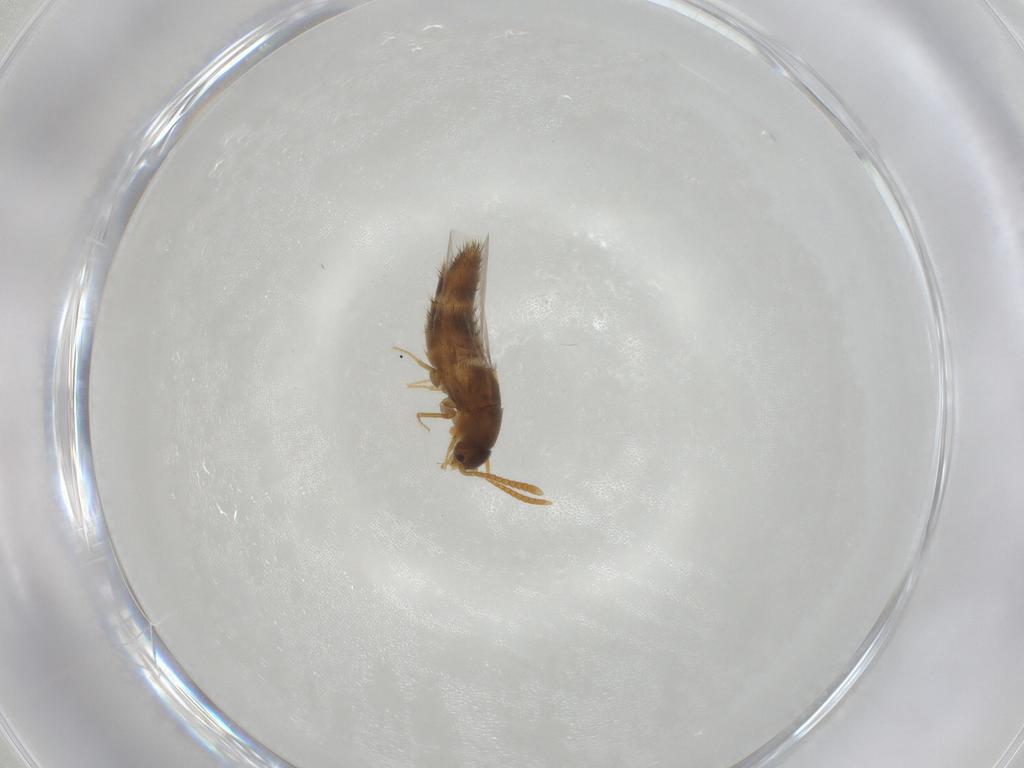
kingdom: Animalia
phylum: Arthropoda
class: Insecta
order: Coleoptera
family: Staphylinidae
